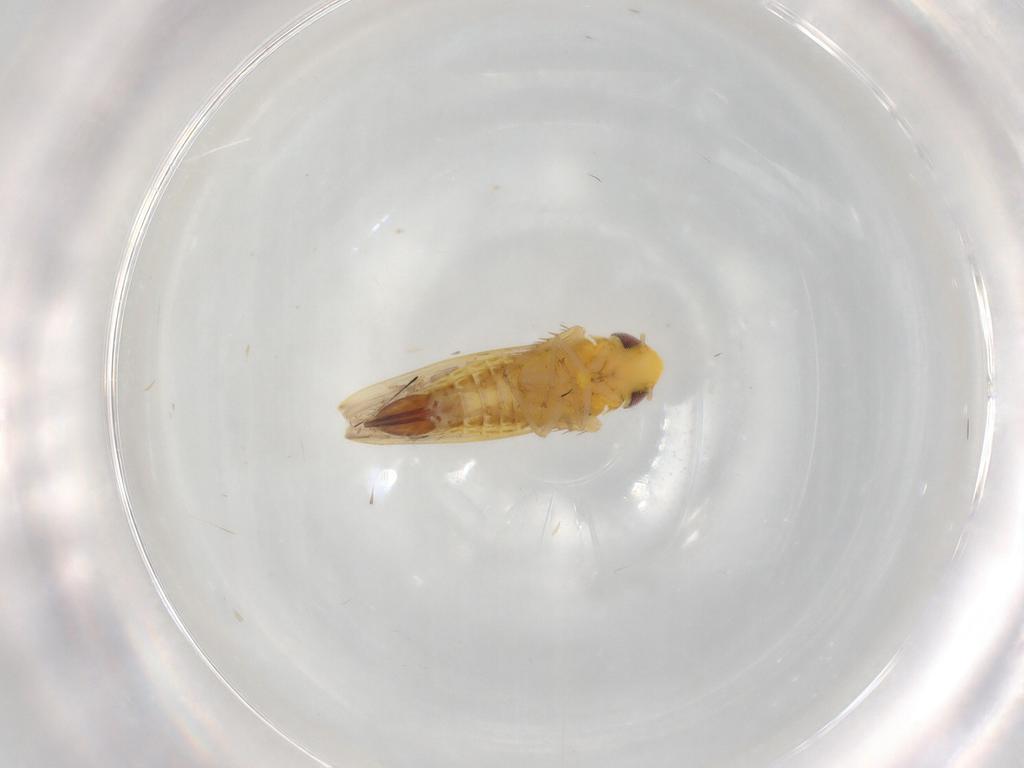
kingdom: Animalia
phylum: Arthropoda
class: Insecta
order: Hemiptera
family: Cicadellidae
